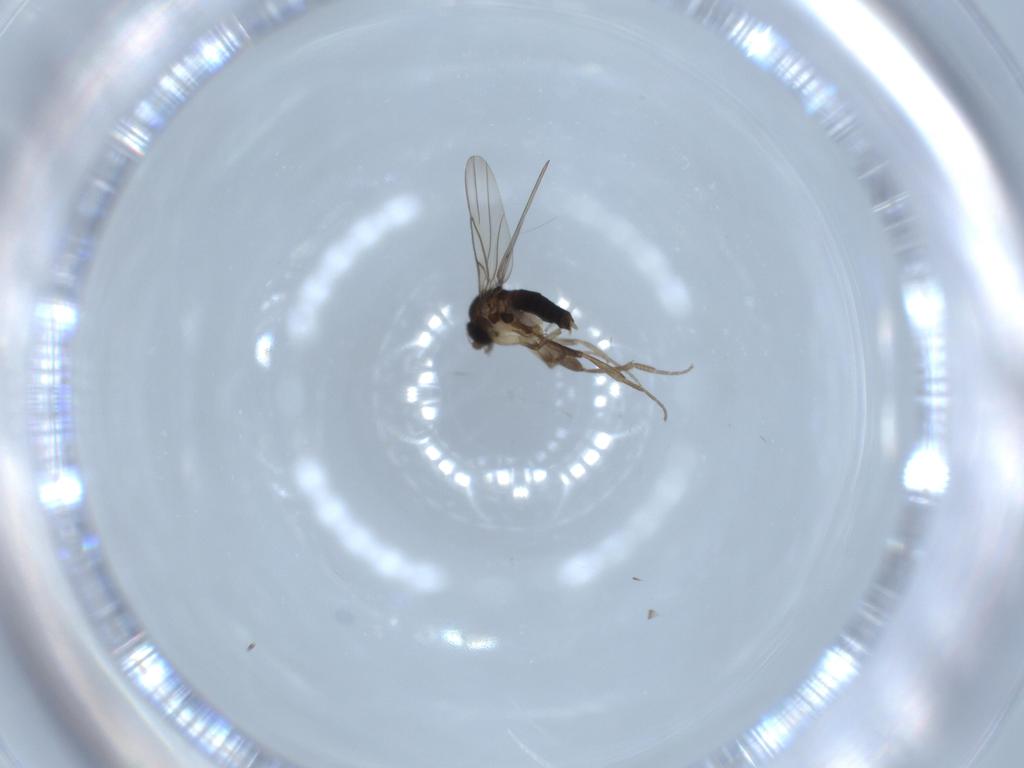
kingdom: Animalia
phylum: Arthropoda
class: Insecta
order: Diptera
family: Phoridae
